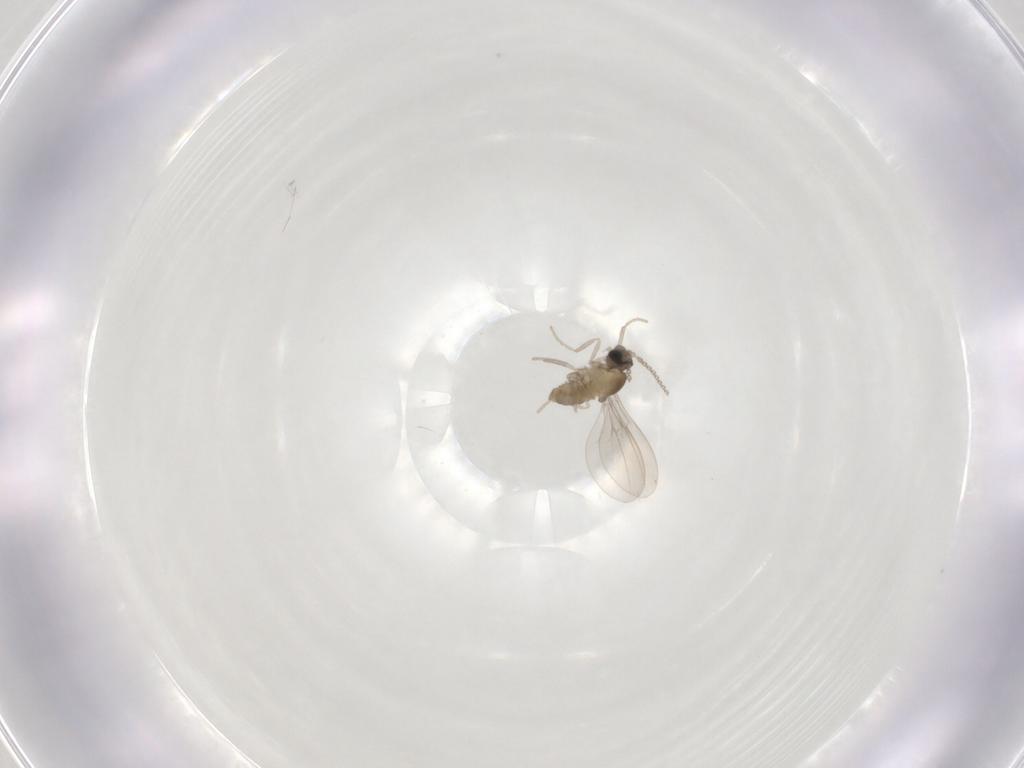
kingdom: Animalia
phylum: Arthropoda
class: Insecta
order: Diptera
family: Cecidomyiidae
